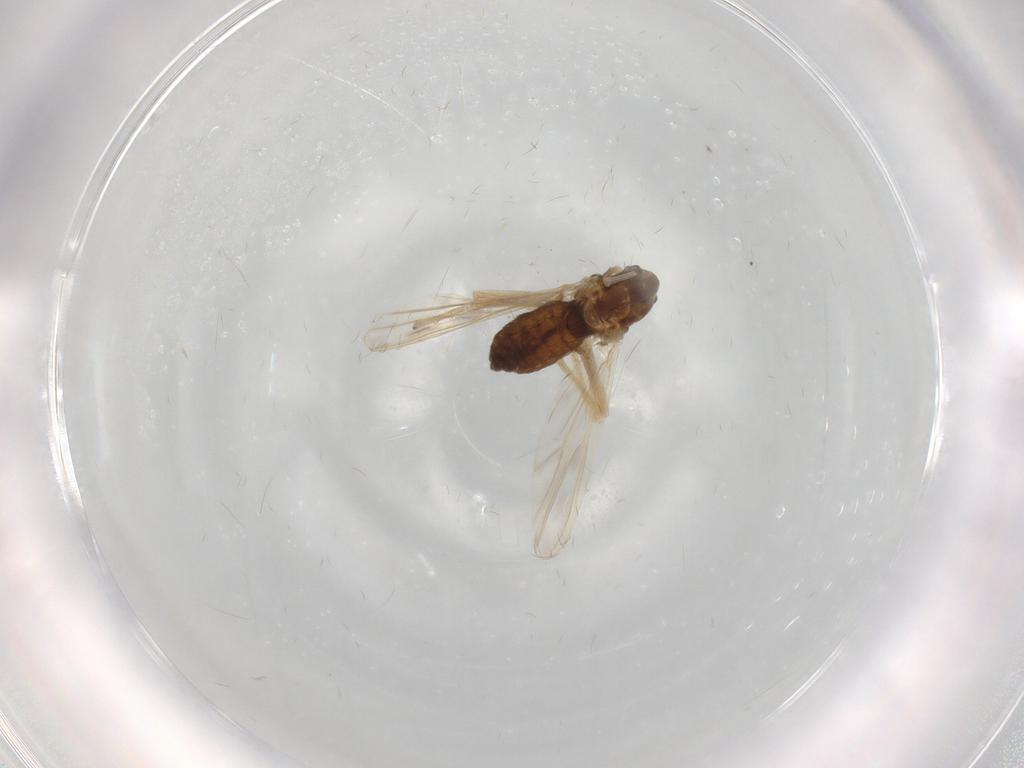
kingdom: Animalia
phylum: Arthropoda
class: Insecta
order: Diptera
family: Chironomidae
